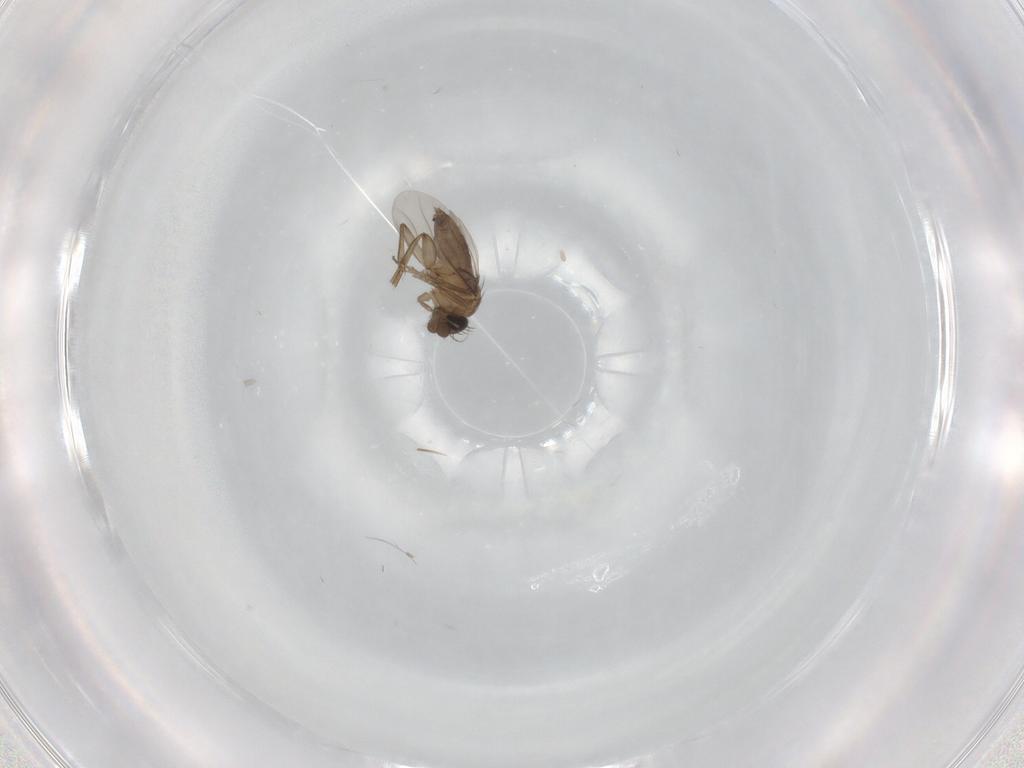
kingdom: Animalia
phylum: Arthropoda
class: Insecta
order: Diptera
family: Phoridae
